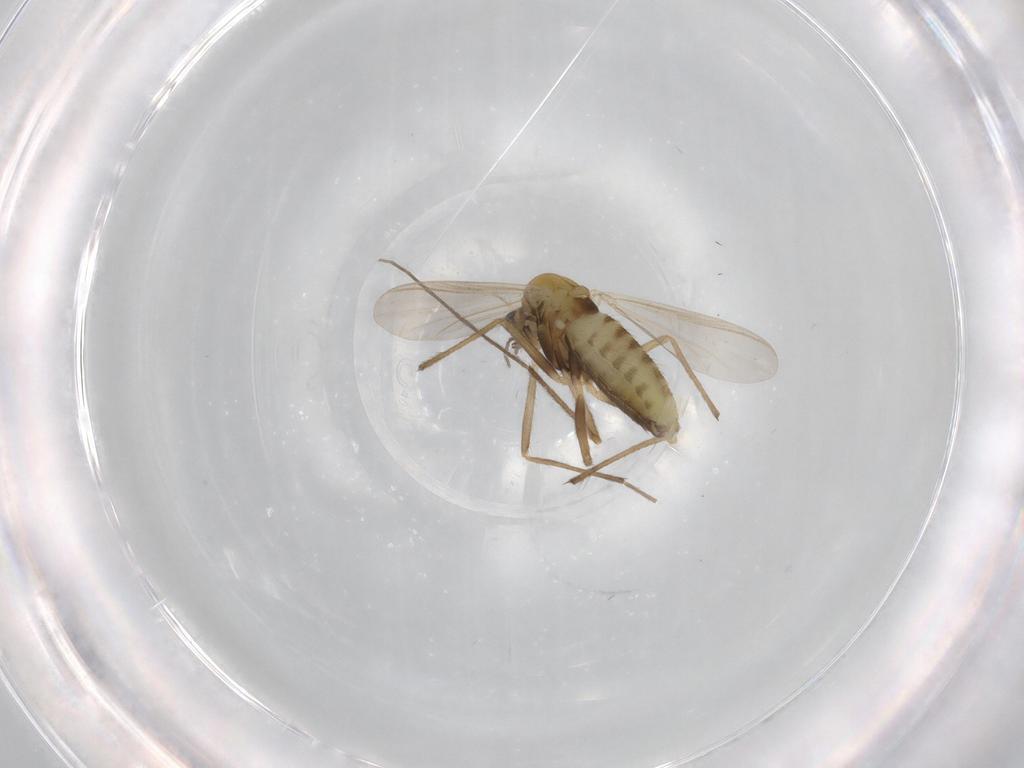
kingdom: Animalia
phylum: Arthropoda
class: Insecta
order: Diptera
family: Chironomidae
